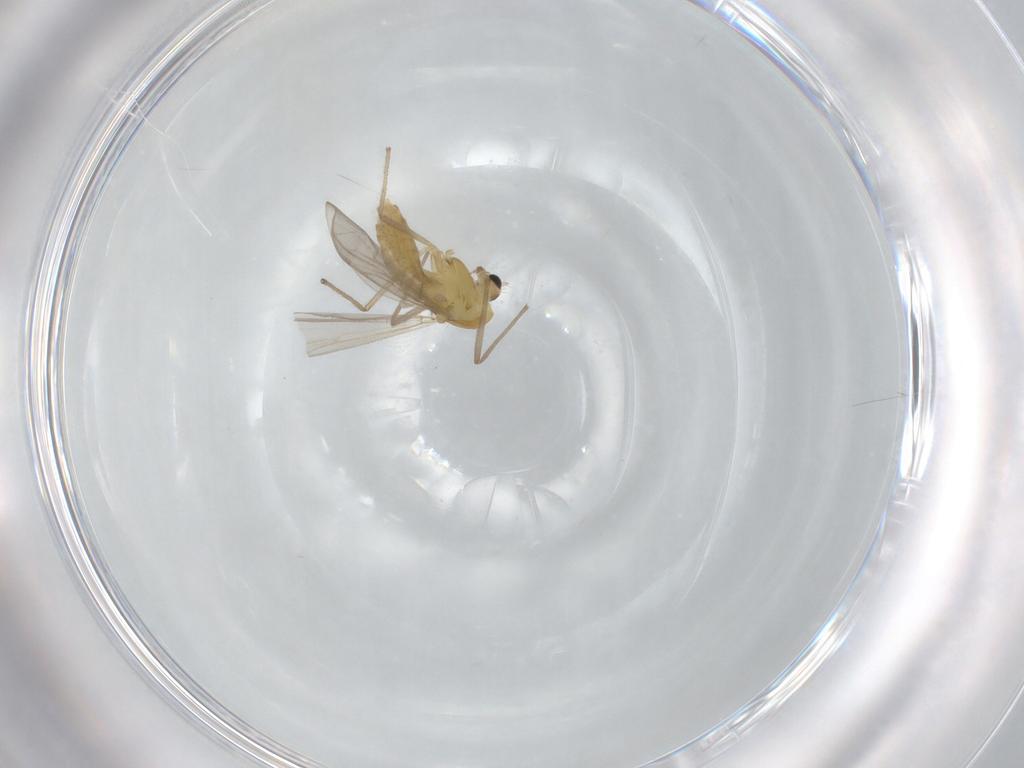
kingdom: Animalia
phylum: Arthropoda
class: Insecta
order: Diptera
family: Chironomidae
